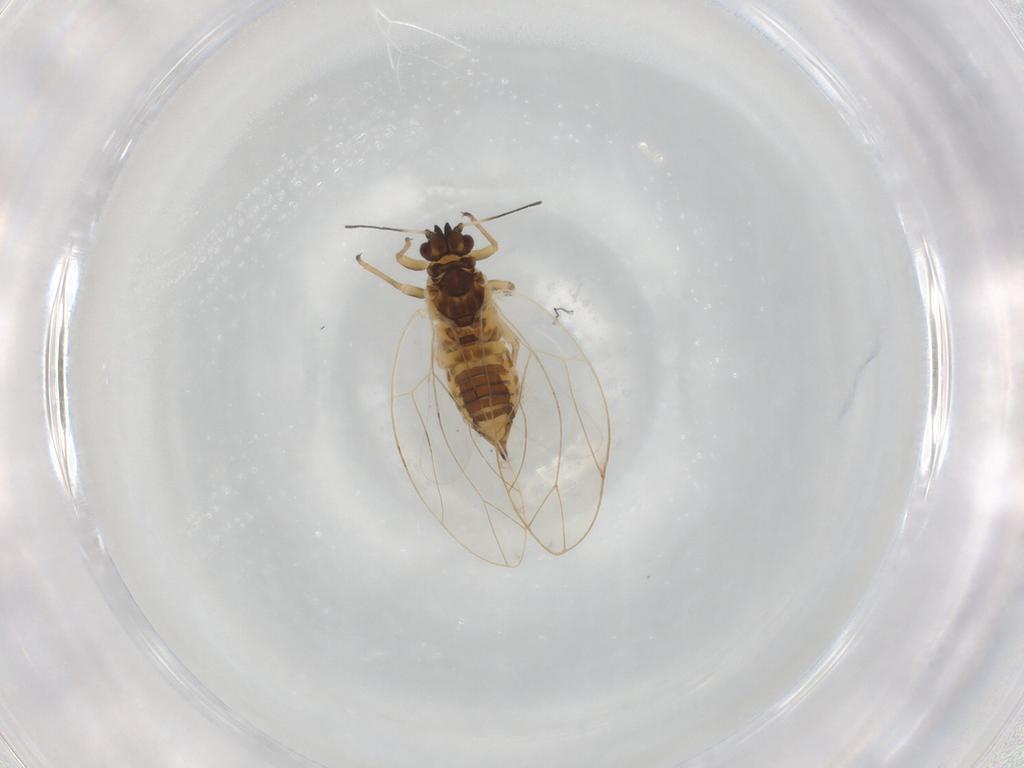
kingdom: Animalia
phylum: Arthropoda
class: Insecta
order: Hemiptera
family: Triozidae
